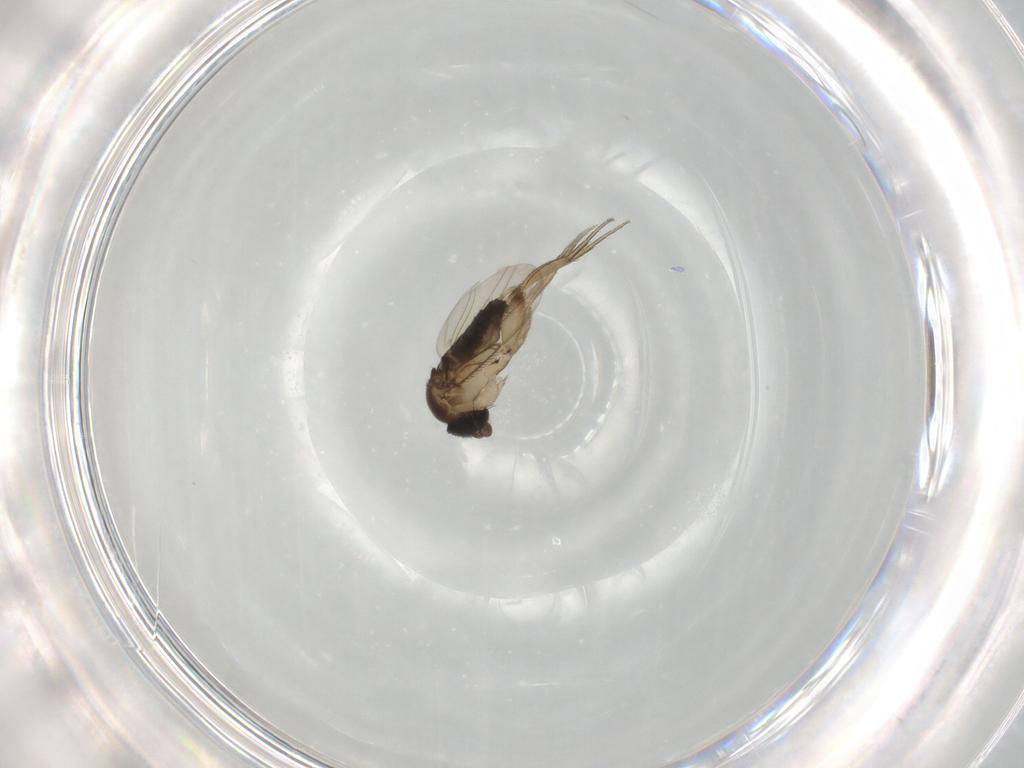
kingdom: Animalia
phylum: Arthropoda
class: Insecta
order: Diptera
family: Phoridae
